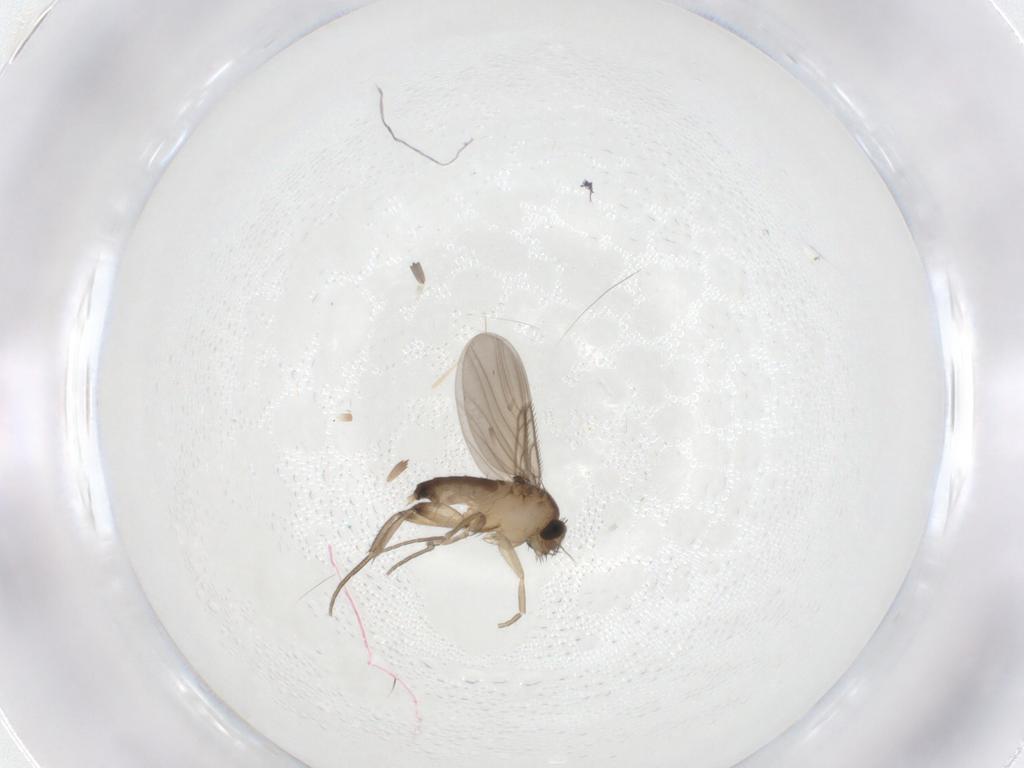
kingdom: Animalia
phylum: Arthropoda
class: Insecta
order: Diptera
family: Phoridae
